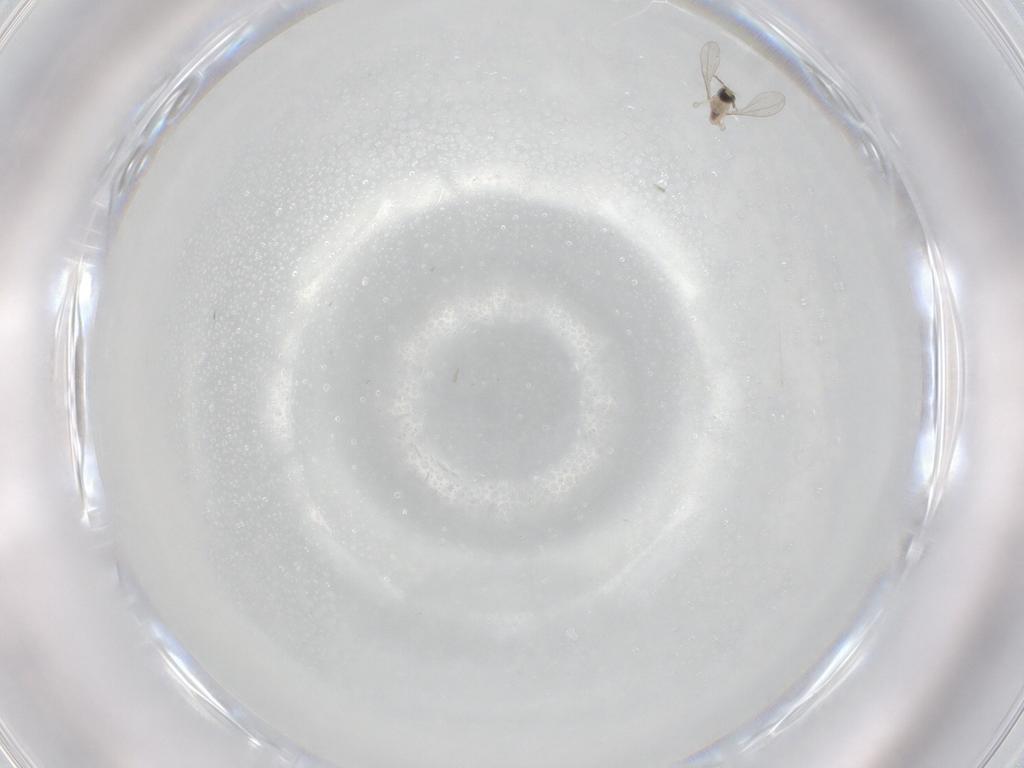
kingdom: Animalia
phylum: Arthropoda
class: Insecta
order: Diptera
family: Cecidomyiidae
